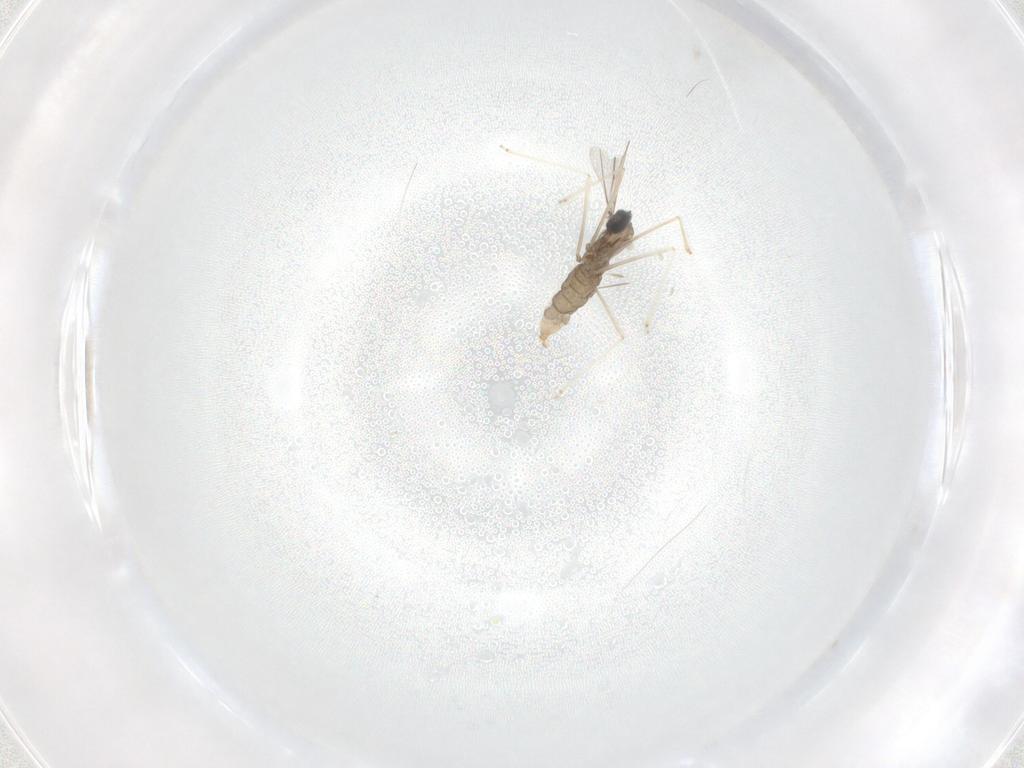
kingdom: Animalia
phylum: Arthropoda
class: Insecta
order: Diptera
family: Cecidomyiidae
